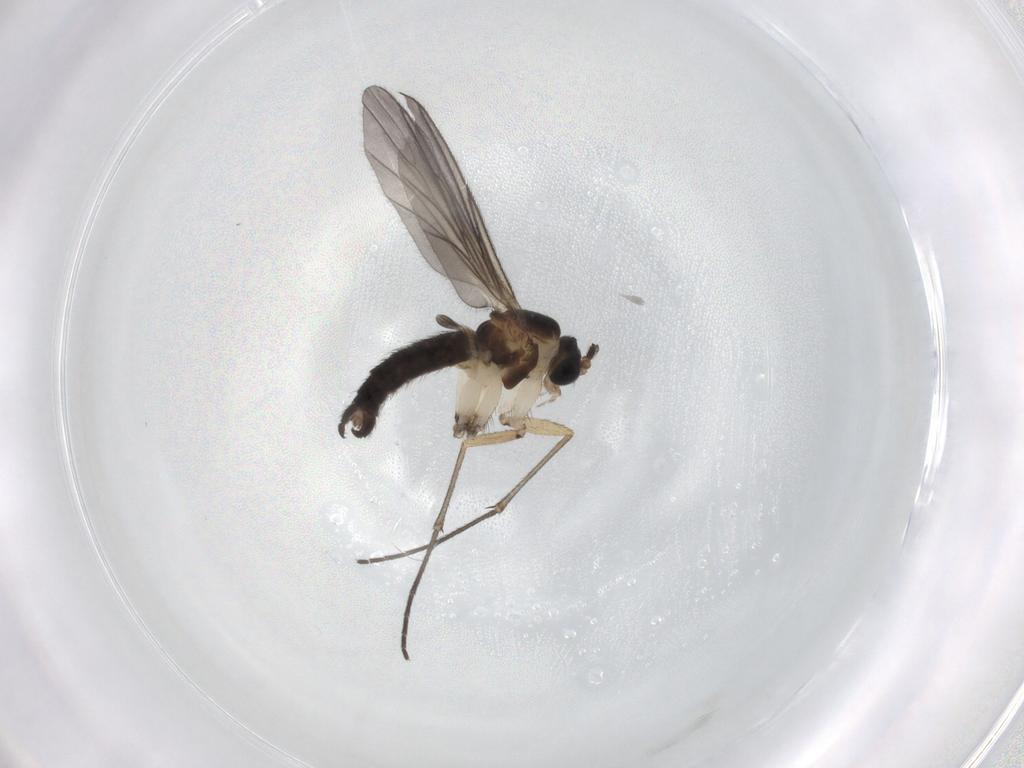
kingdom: Animalia
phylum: Arthropoda
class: Insecta
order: Diptera
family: Sciaridae
